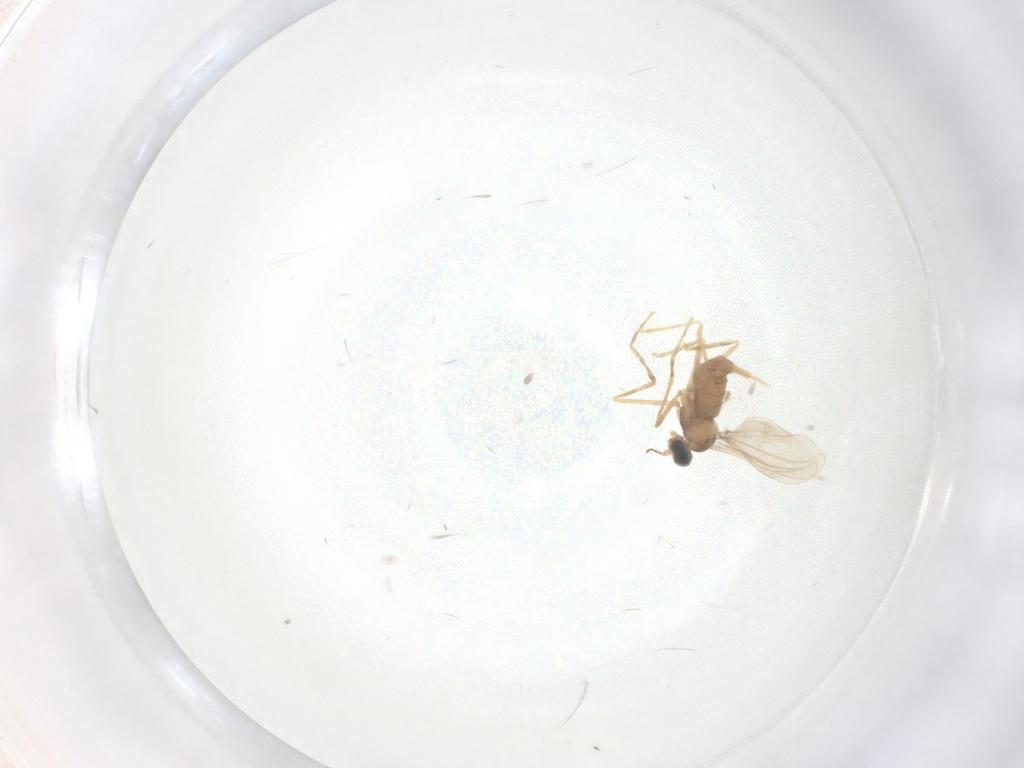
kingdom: Animalia
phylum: Arthropoda
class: Insecta
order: Diptera
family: Cecidomyiidae
